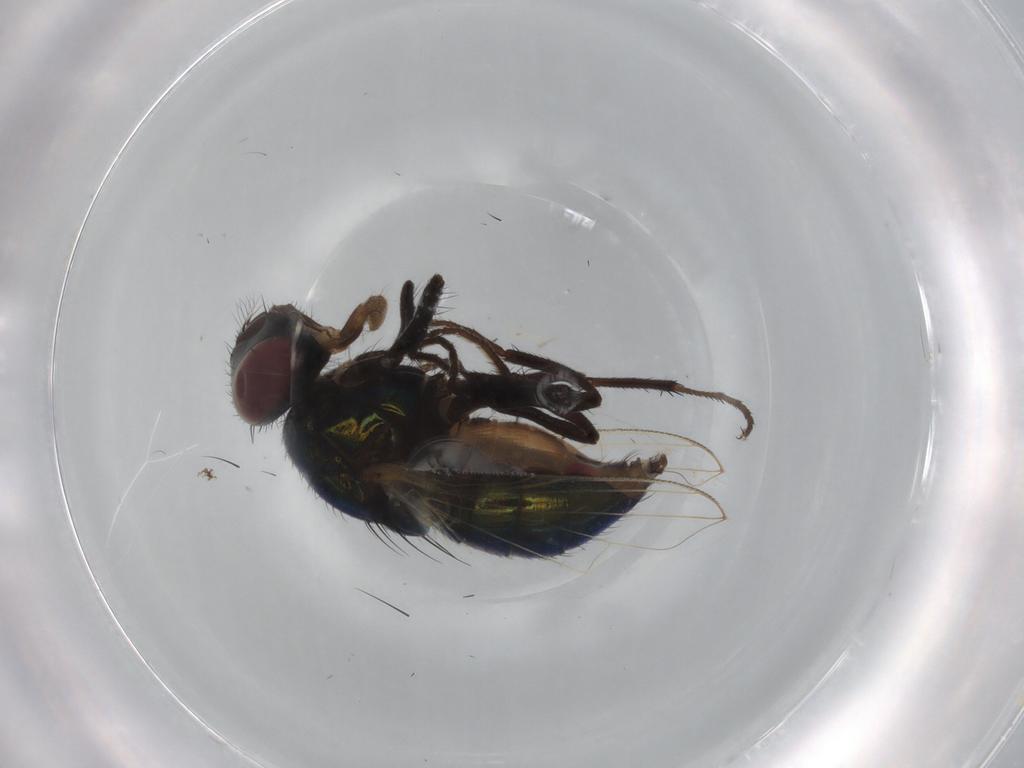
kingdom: Animalia
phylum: Arthropoda
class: Insecta
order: Diptera
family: Muscidae
